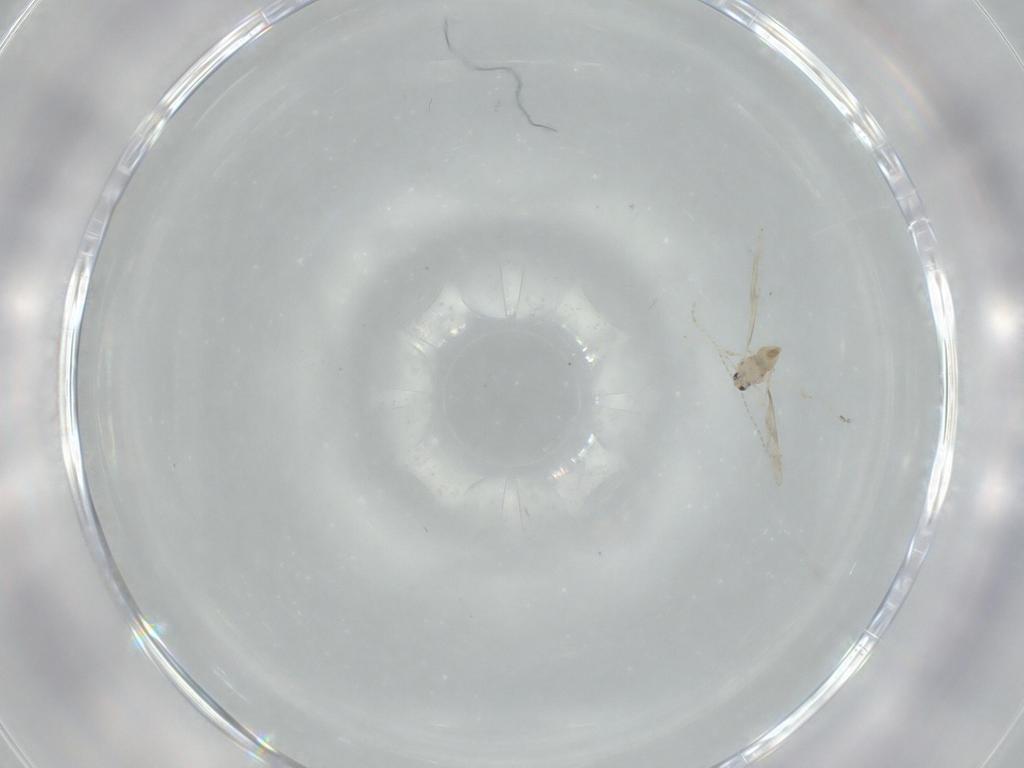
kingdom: Animalia
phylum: Arthropoda
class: Insecta
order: Diptera
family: Cecidomyiidae
